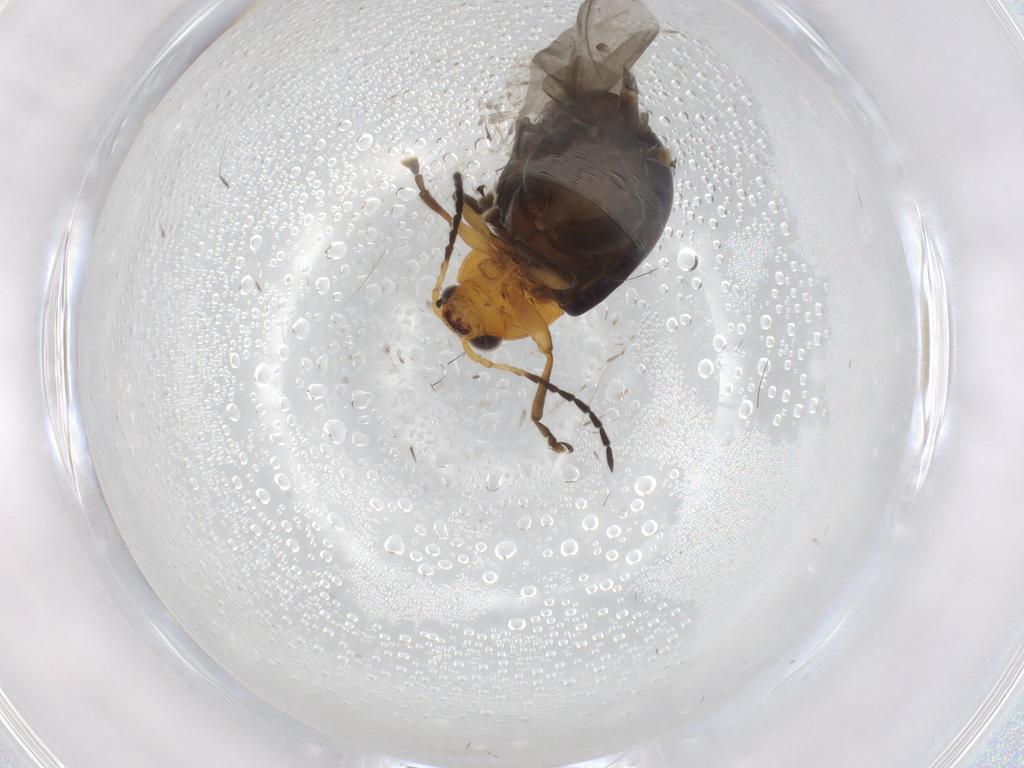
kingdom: Animalia
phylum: Arthropoda
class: Insecta
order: Coleoptera
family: Chrysomelidae
